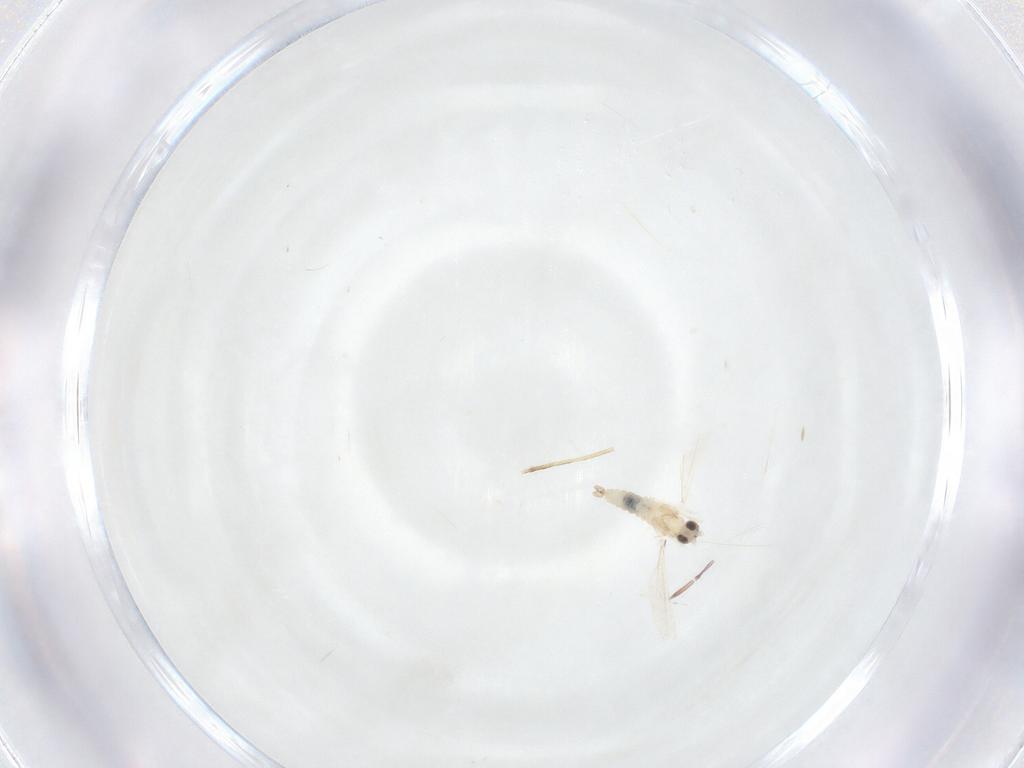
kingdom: Animalia
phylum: Arthropoda
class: Insecta
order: Diptera
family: Cecidomyiidae
